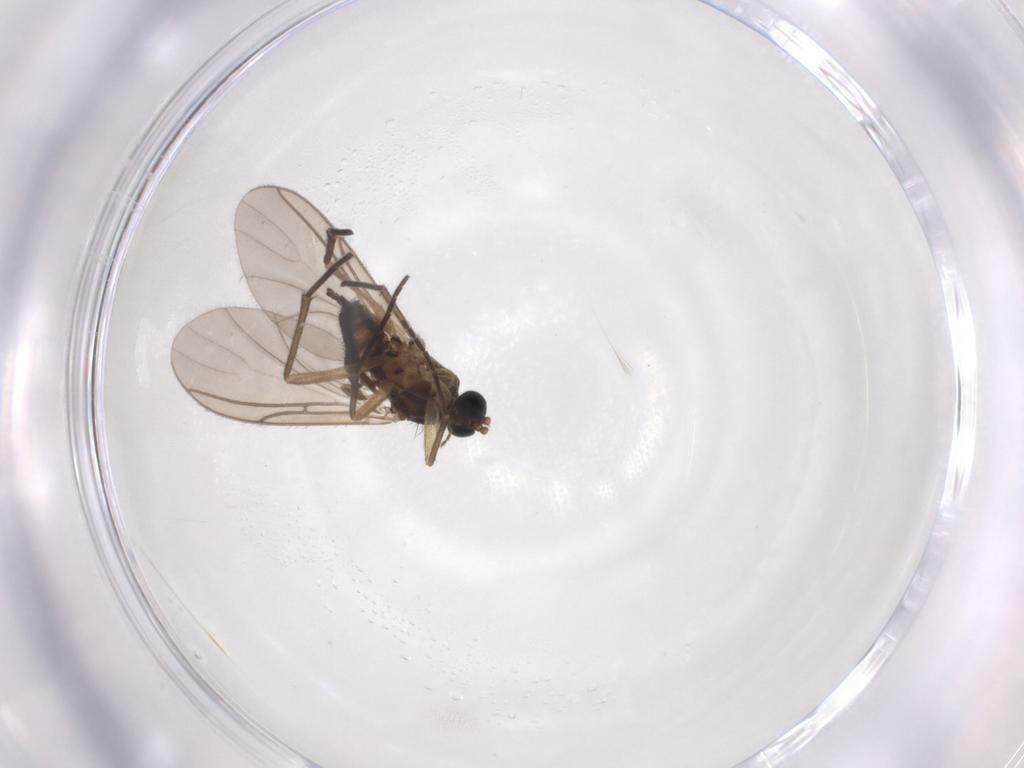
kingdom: Animalia
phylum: Arthropoda
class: Insecta
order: Diptera
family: Sciaridae
